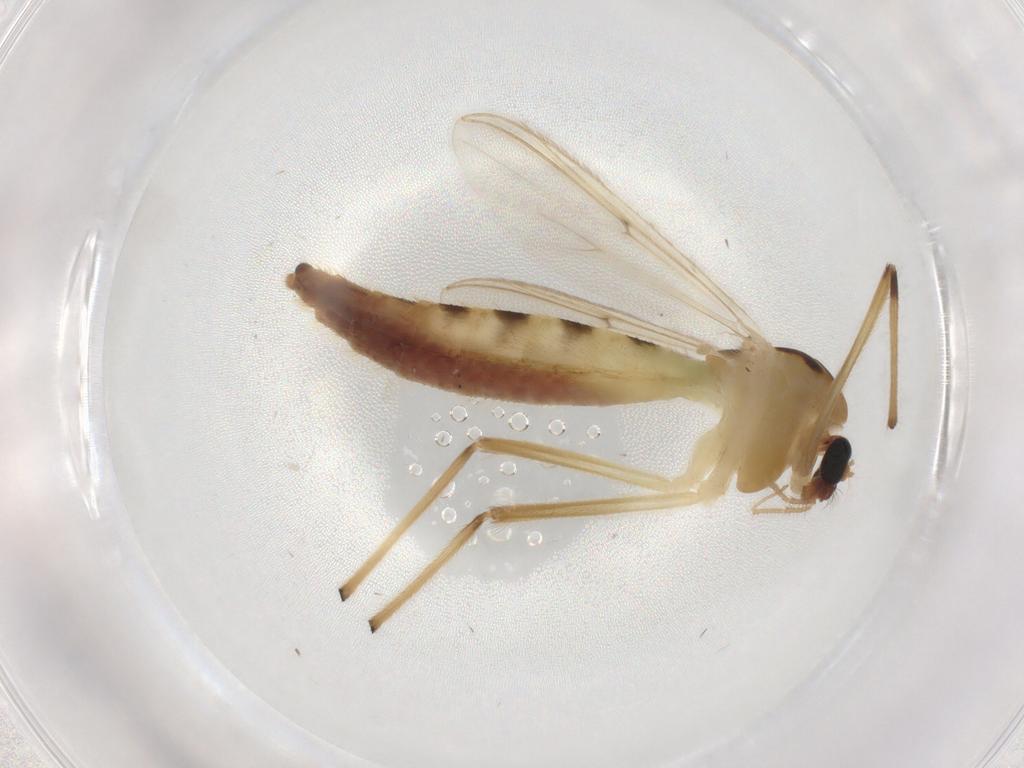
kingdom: Animalia
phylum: Arthropoda
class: Insecta
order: Diptera
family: Chironomidae
